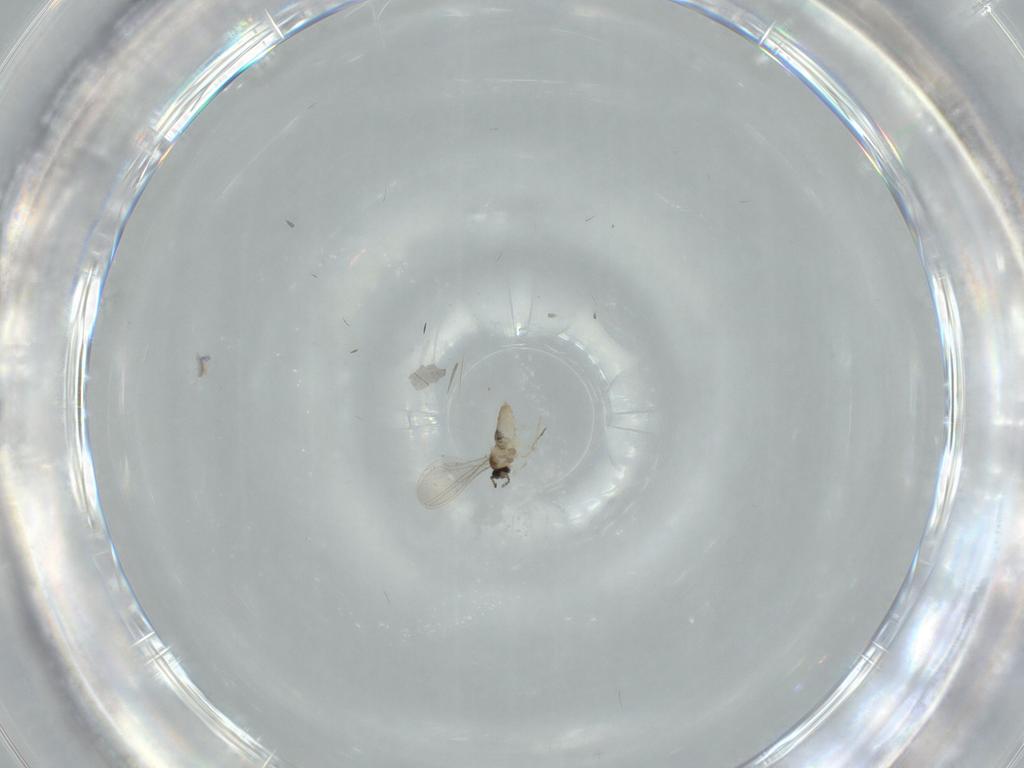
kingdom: Animalia
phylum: Arthropoda
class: Insecta
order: Diptera
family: Cecidomyiidae
